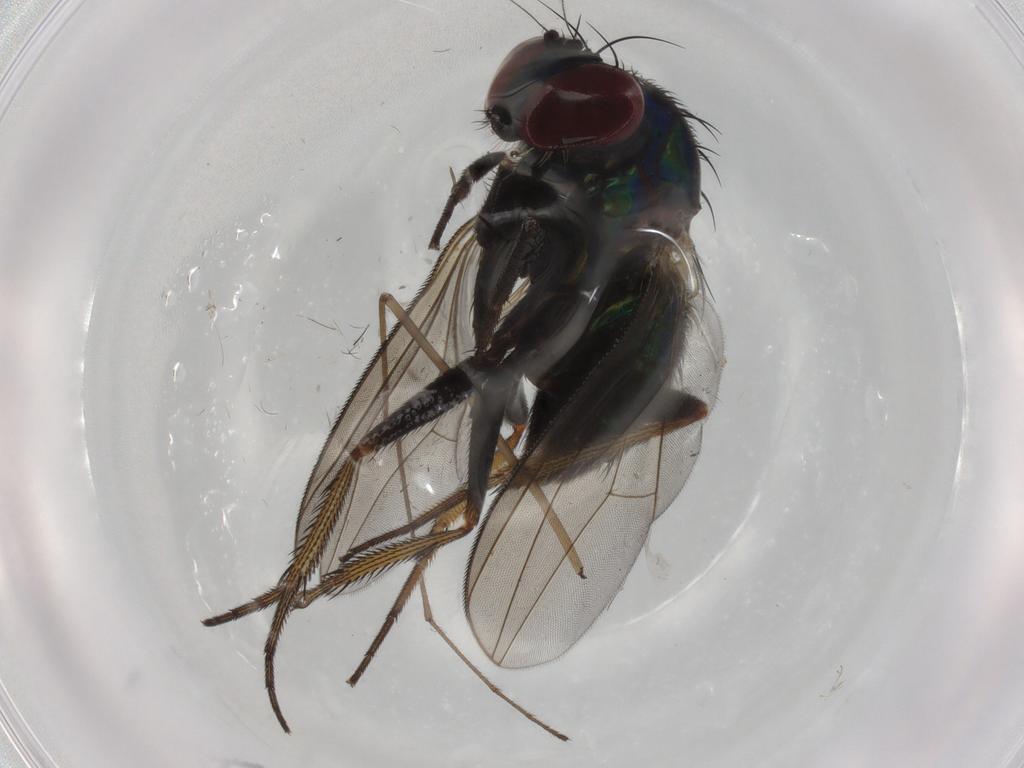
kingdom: Animalia
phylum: Arthropoda
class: Insecta
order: Diptera
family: Dolichopodidae
